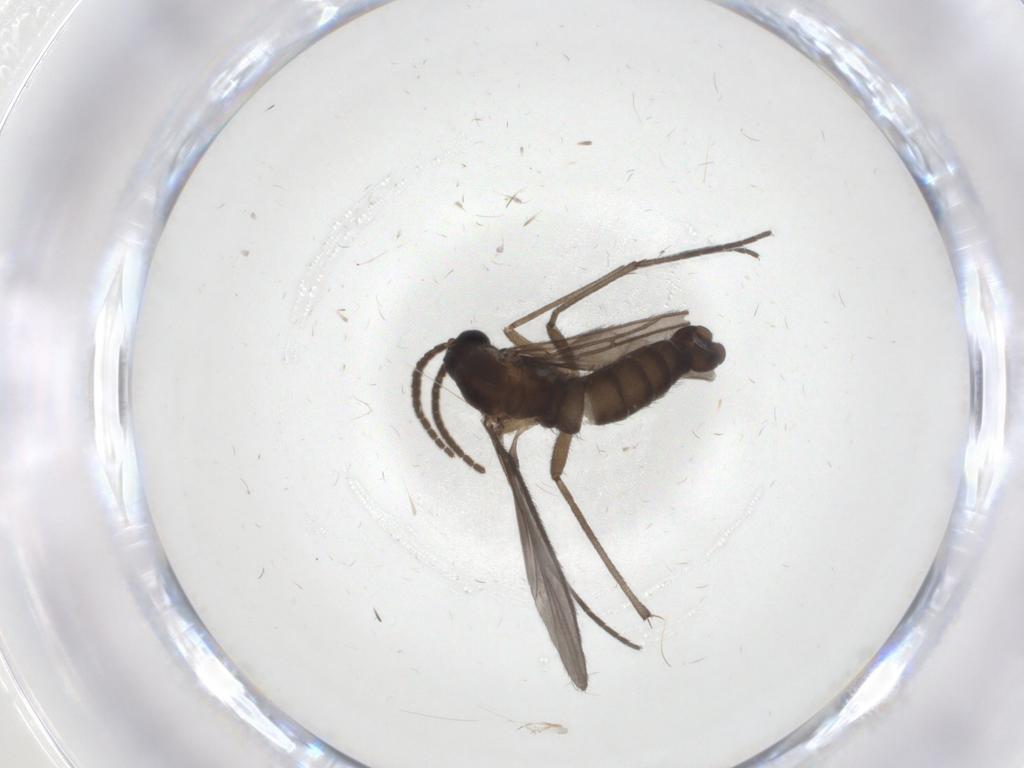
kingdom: Animalia
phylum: Arthropoda
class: Insecta
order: Diptera
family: Sciaridae
